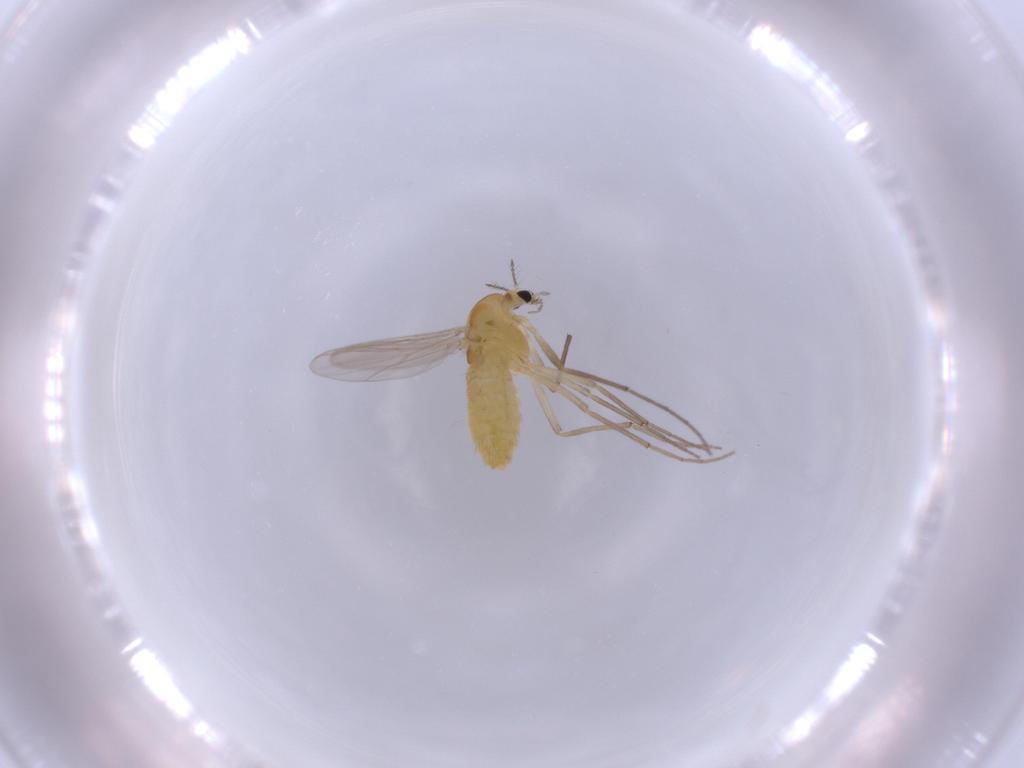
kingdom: Animalia
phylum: Arthropoda
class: Insecta
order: Diptera
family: Chironomidae
